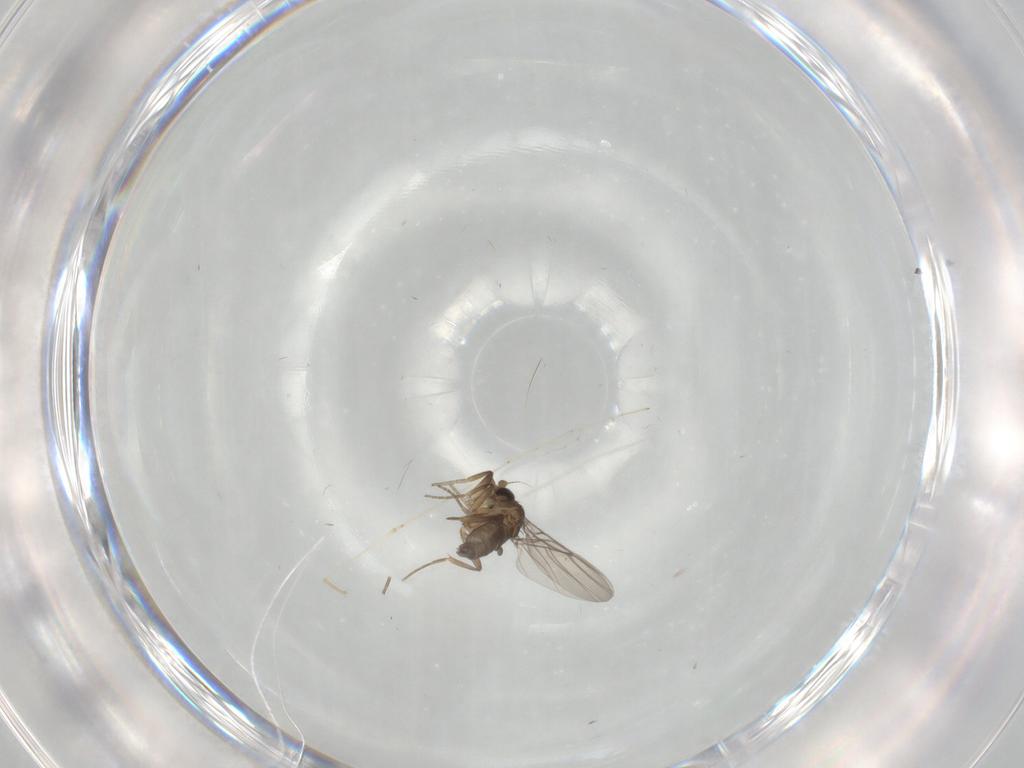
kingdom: Animalia
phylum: Arthropoda
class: Insecta
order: Diptera
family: Phoridae
